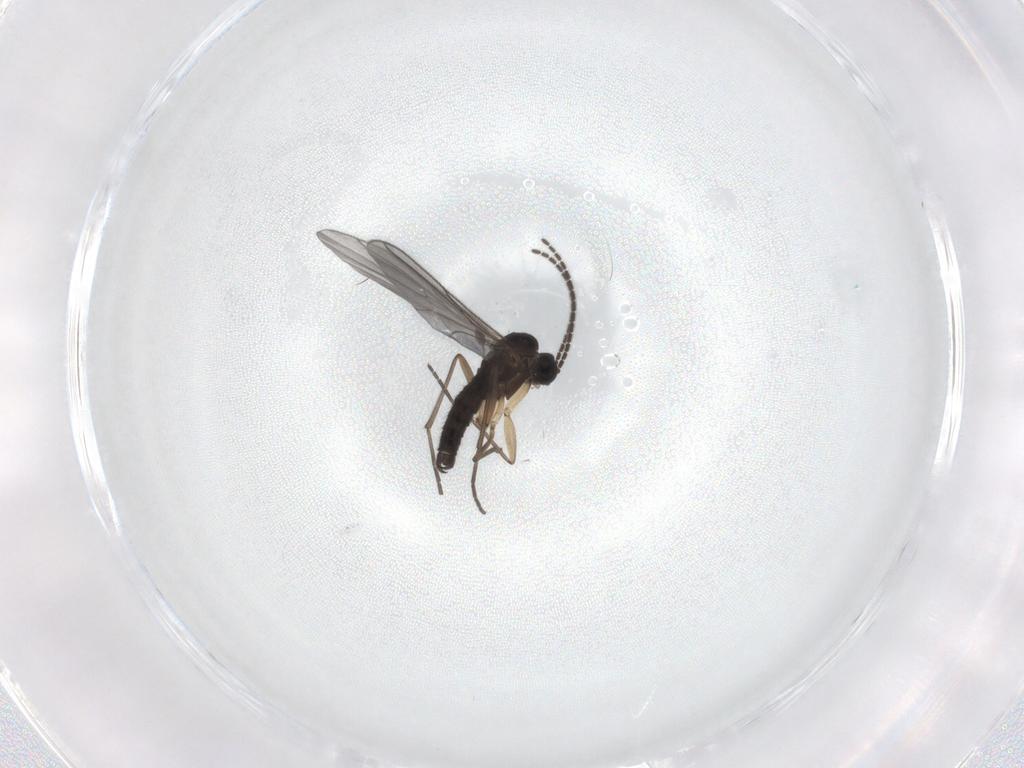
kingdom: Animalia
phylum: Arthropoda
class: Insecta
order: Diptera
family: Sciaridae
